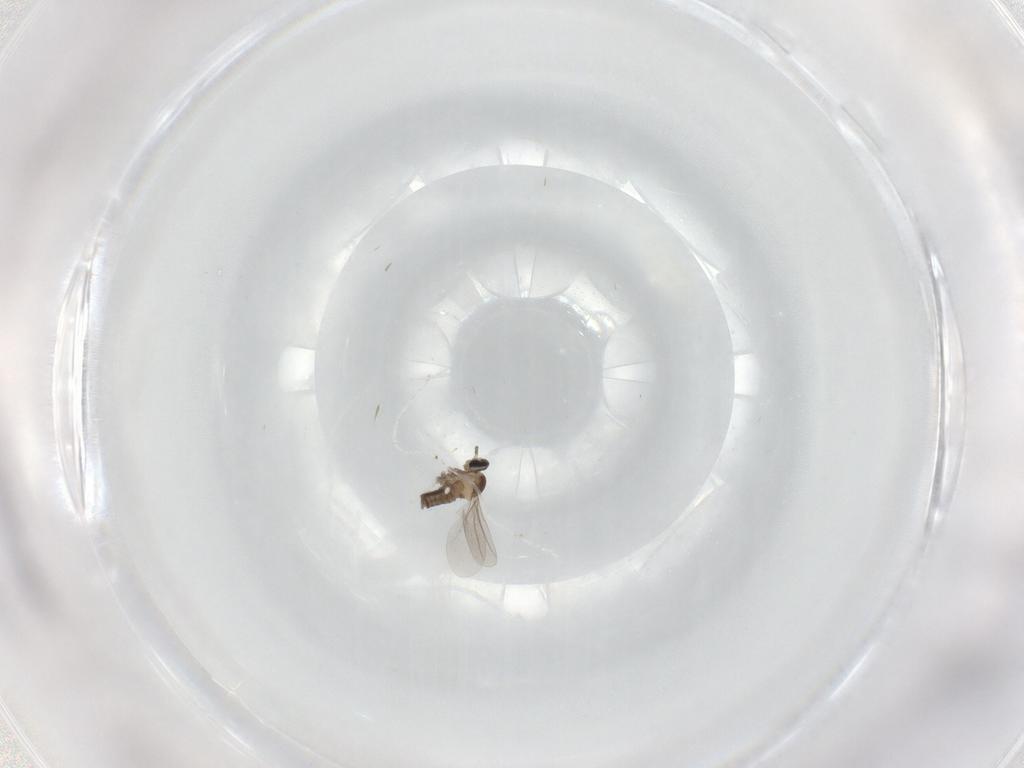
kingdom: Animalia
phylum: Arthropoda
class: Insecta
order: Diptera
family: Cecidomyiidae
